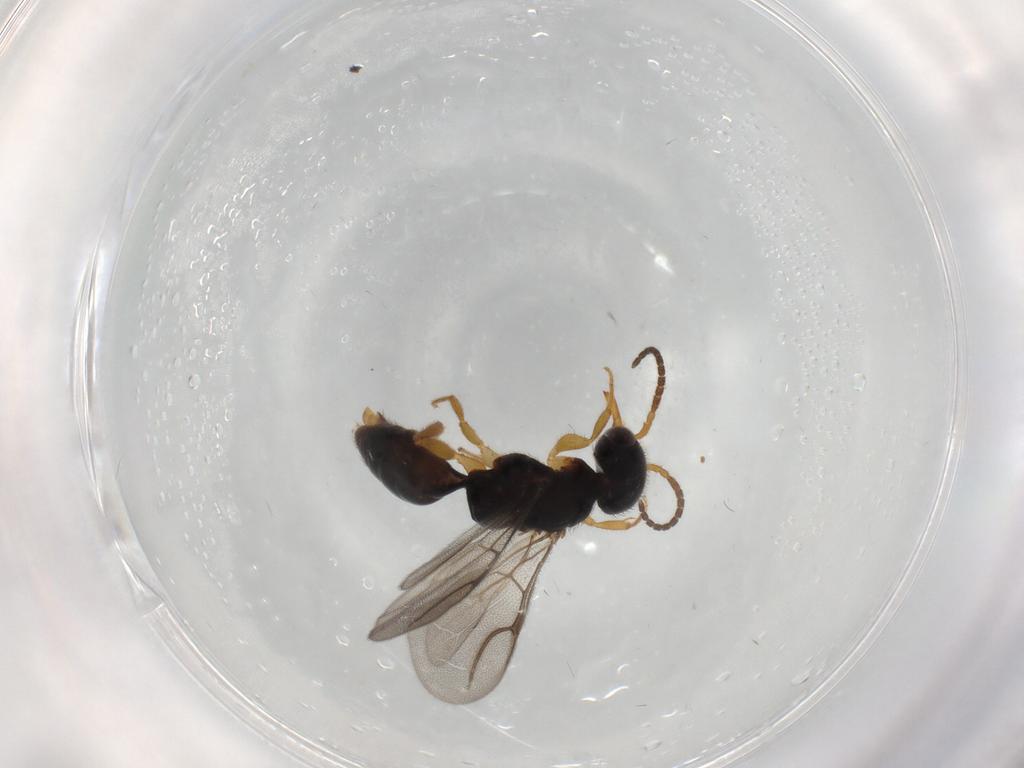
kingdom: Animalia
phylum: Arthropoda
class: Insecta
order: Hymenoptera
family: Bethylidae
